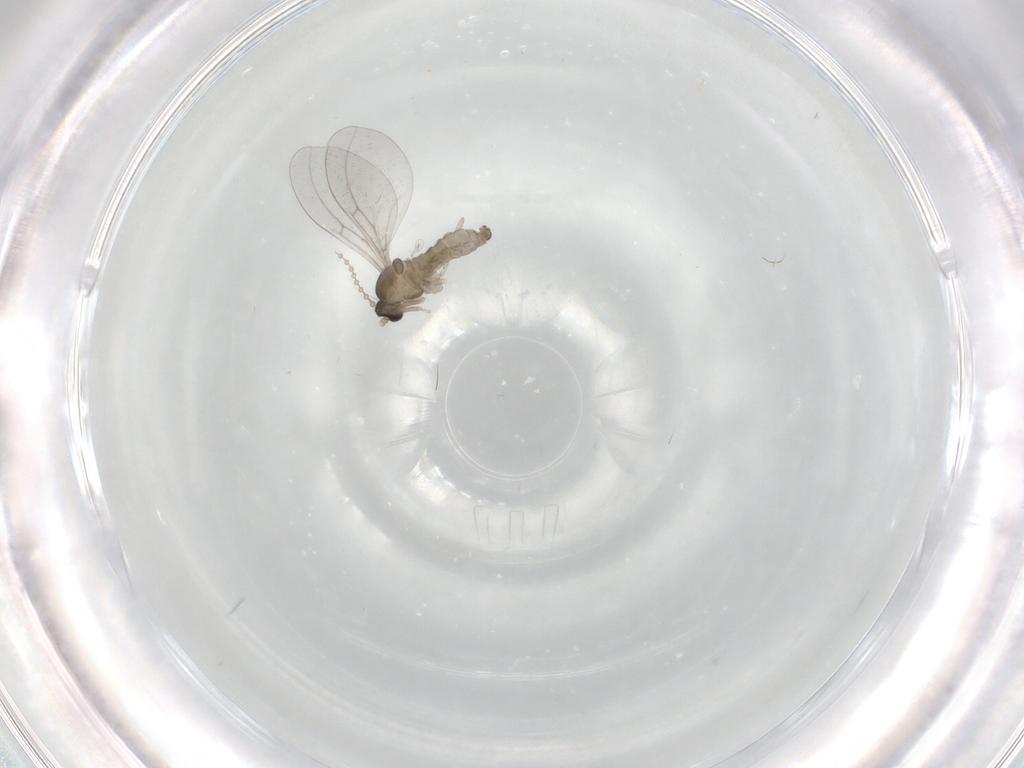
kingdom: Animalia
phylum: Arthropoda
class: Insecta
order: Diptera
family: Cecidomyiidae
